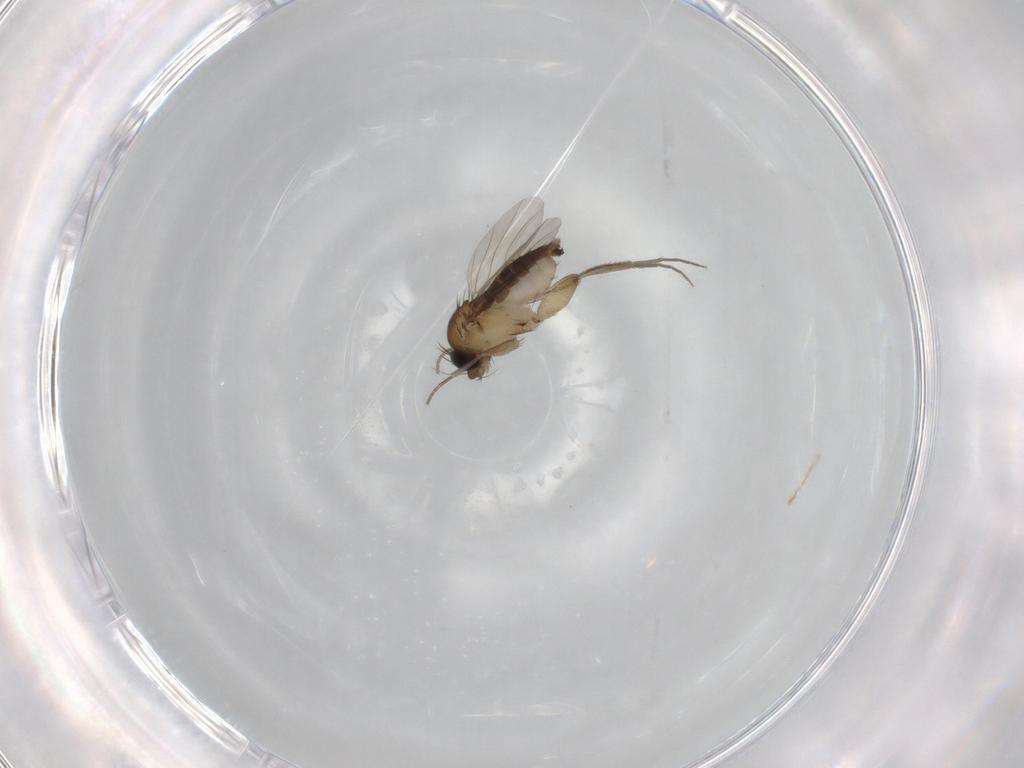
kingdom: Animalia
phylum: Arthropoda
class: Insecta
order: Diptera
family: Phoridae
